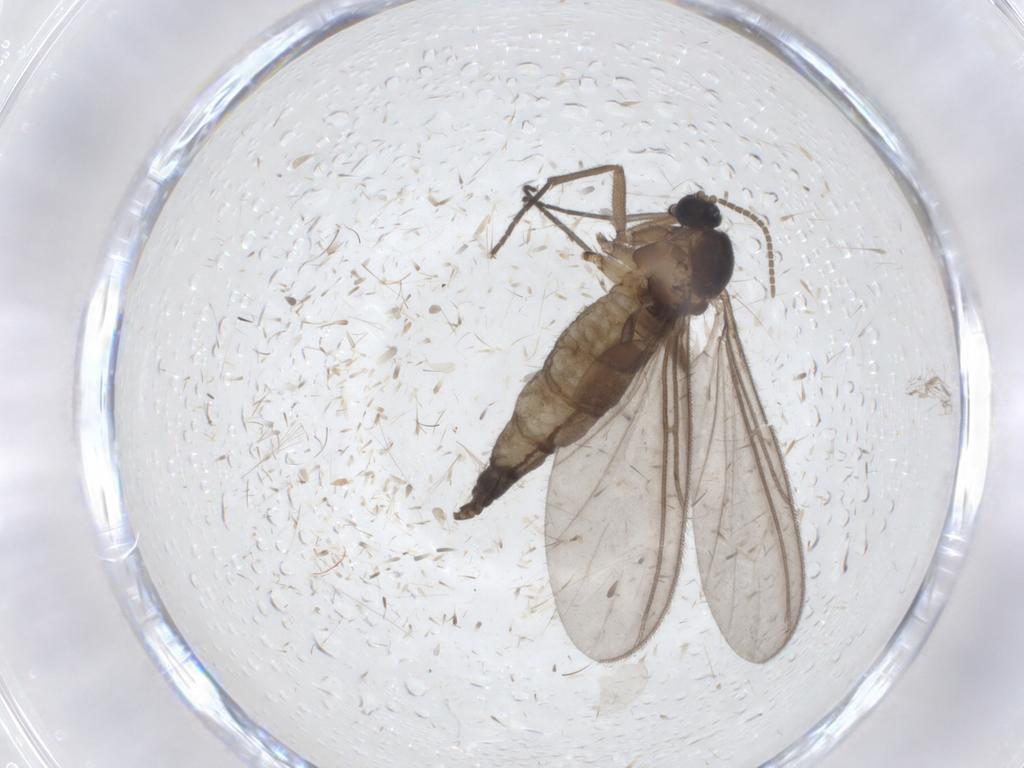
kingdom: Animalia
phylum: Arthropoda
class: Insecta
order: Diptera
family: Cecidomyiidae
